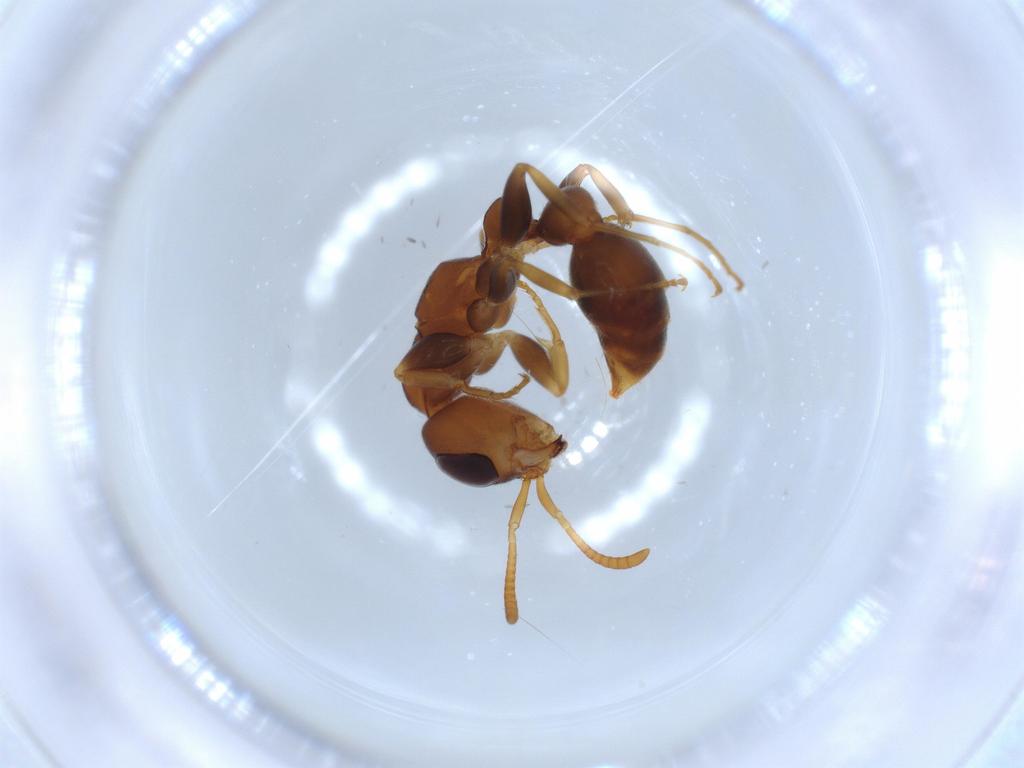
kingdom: Animalia
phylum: Arthropoda
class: Insecta
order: Hymenoptera
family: Formicidae
